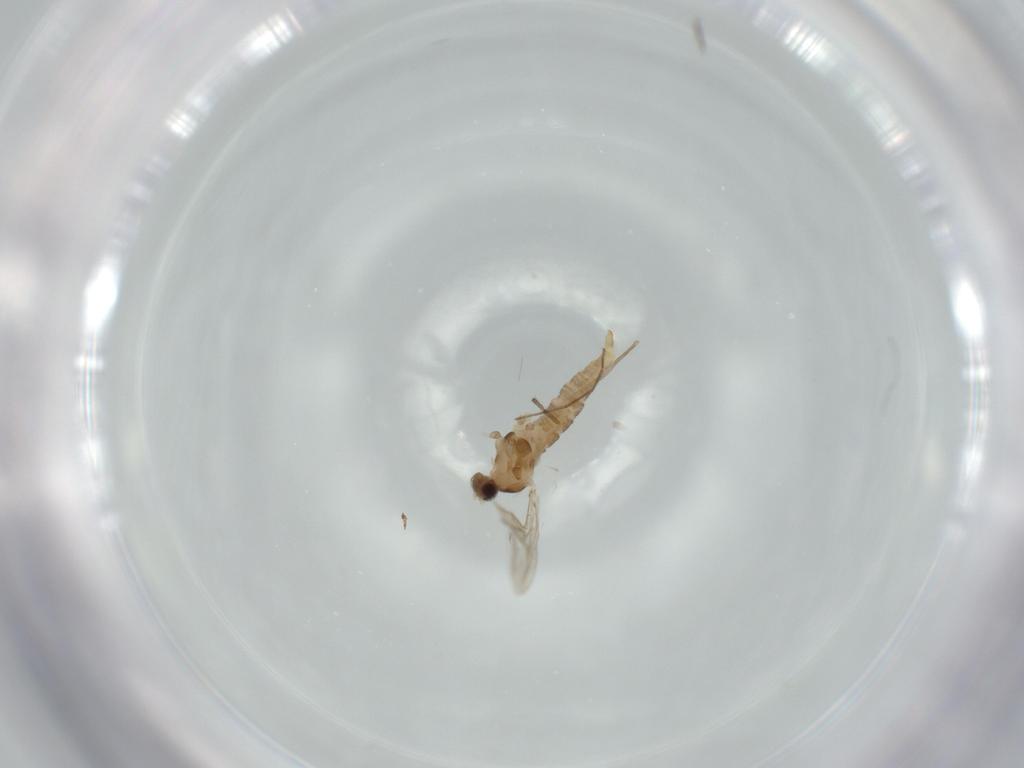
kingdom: Animalia
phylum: Arthropoda
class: Insecta
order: Diptera
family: Cecidomyiidae
